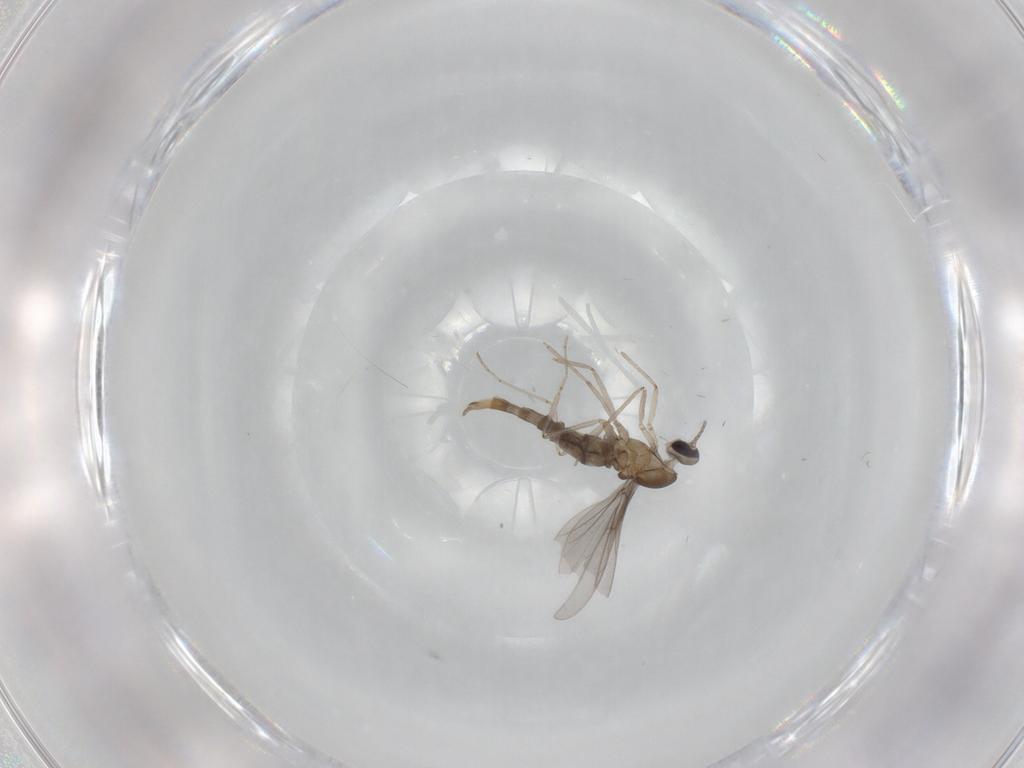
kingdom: Animalia
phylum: Arthropoda
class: Insecta
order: Diptera
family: Cecidomyiidae
